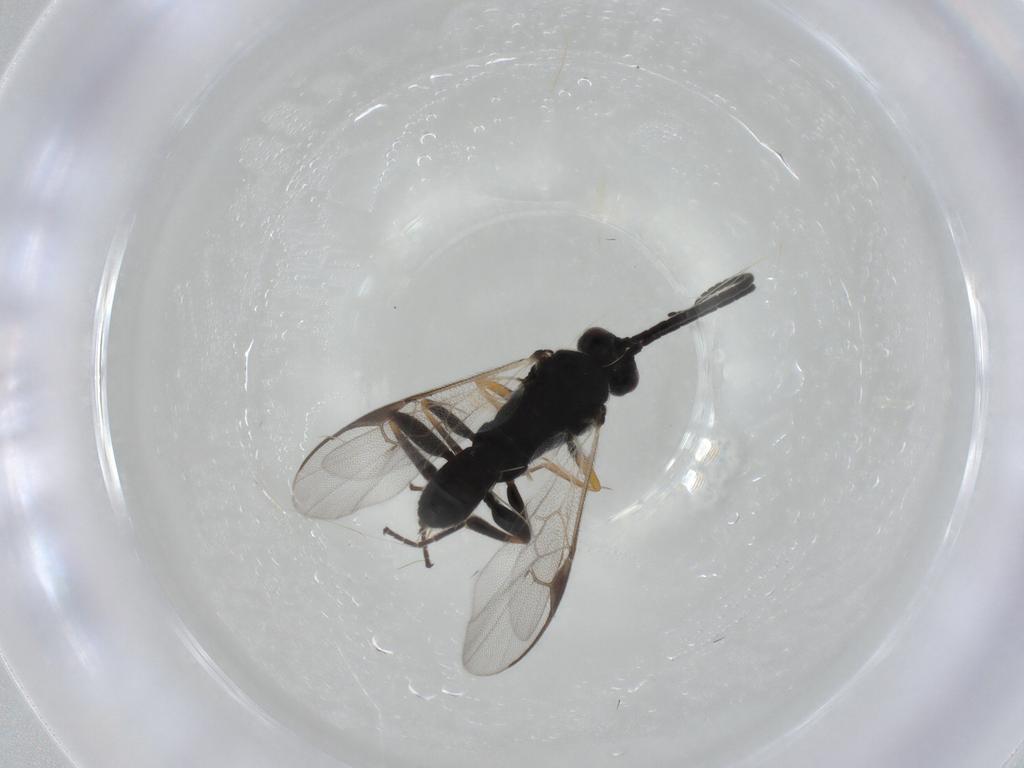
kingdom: Animalia
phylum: Arthropoda
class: Insecta
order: Hymenoptera
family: Braconidae
